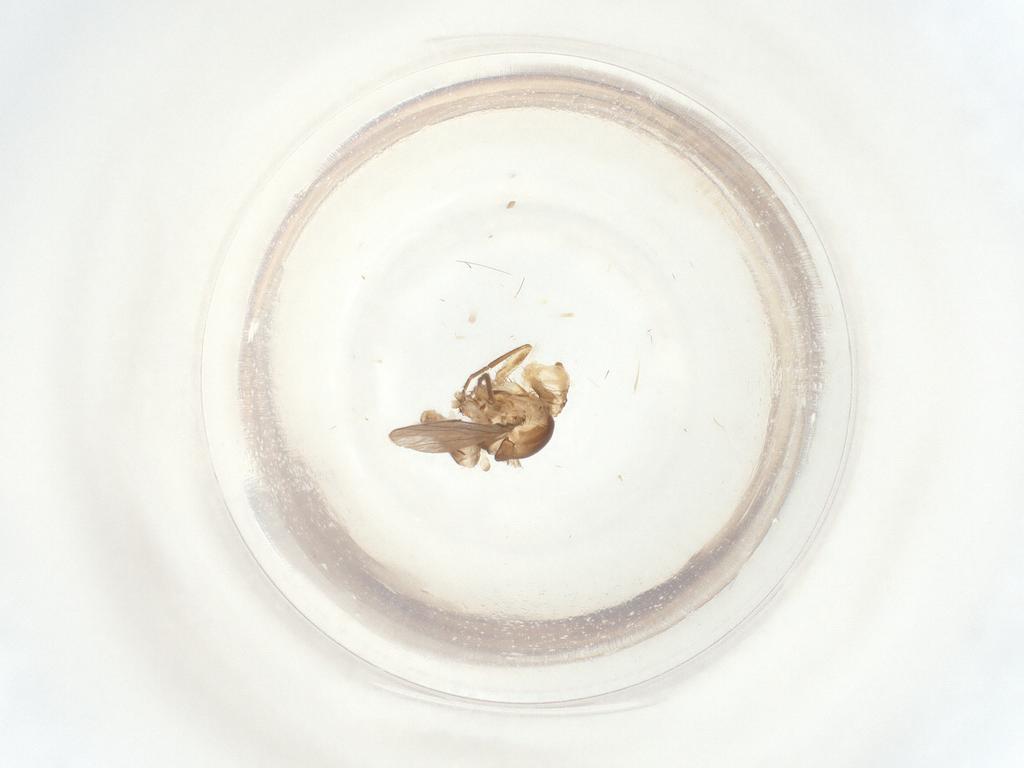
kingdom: Animalia
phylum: Arthropoda
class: Insecta
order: Diptera
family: Agromyzidae
